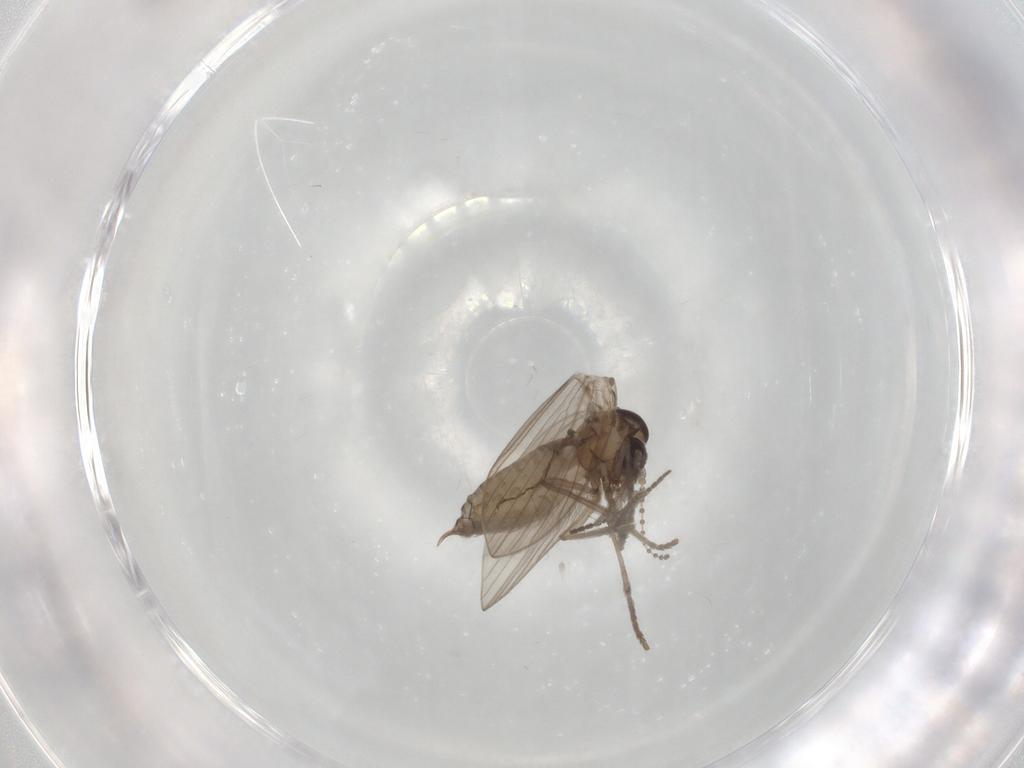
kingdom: Animalia
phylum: Arthropoda
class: Insecta
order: Diptera
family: Psychodidae
